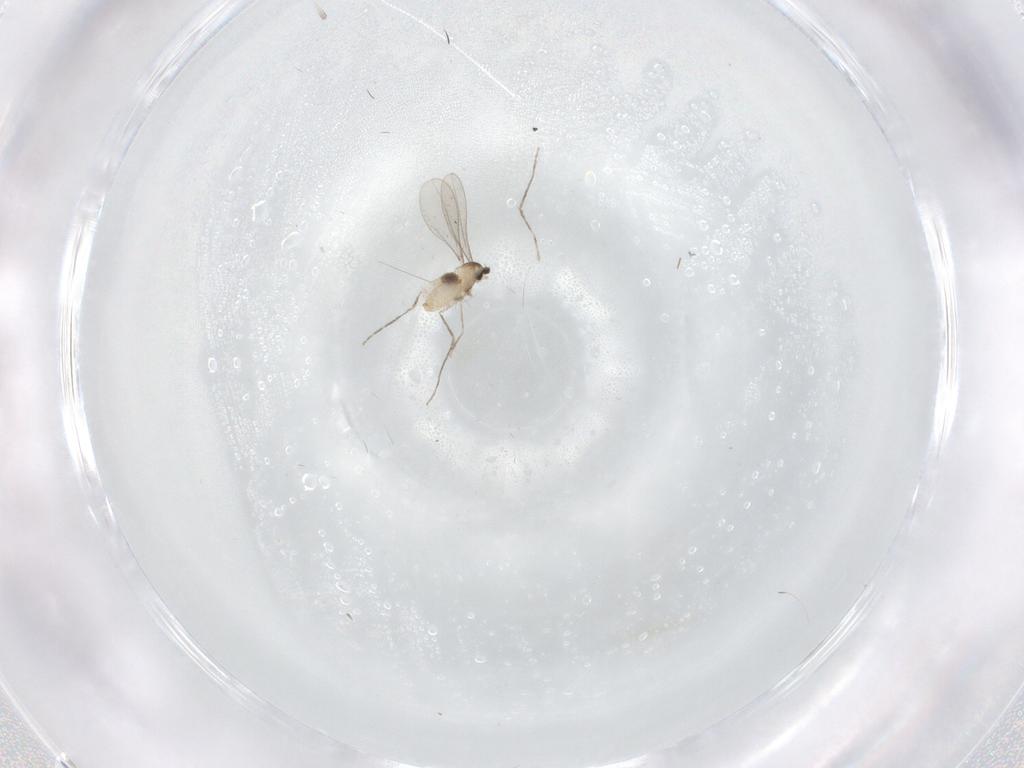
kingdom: Animalia
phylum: Arthropoda
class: Insecta
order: Diptera
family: Cecidomyiidae
